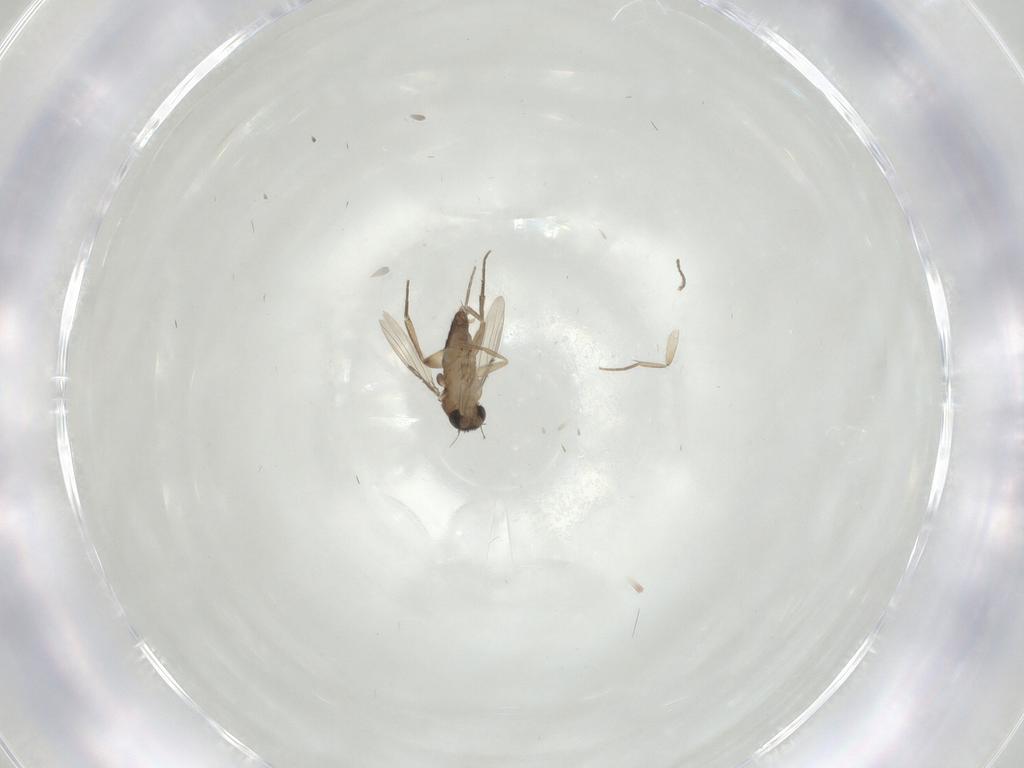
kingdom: Animalia
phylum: Arthropoda
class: Insecta
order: Diptera
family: Phoridae
